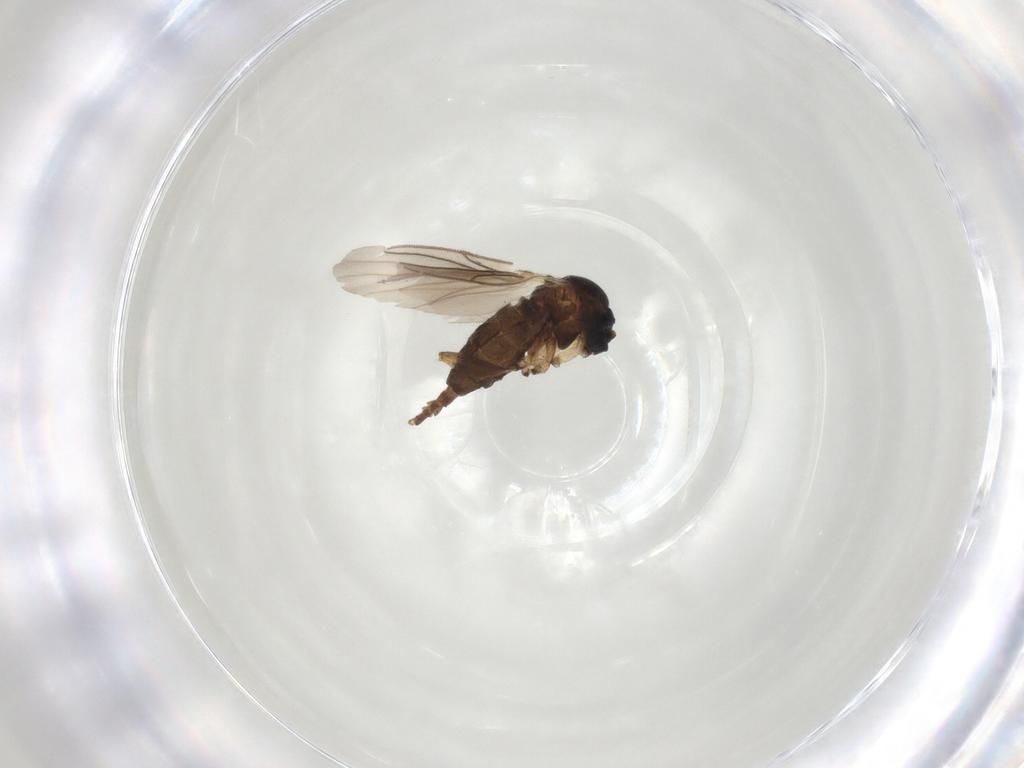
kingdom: Animalia
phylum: Arthropoda
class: Insecta
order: Diptera
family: Sciaridae
